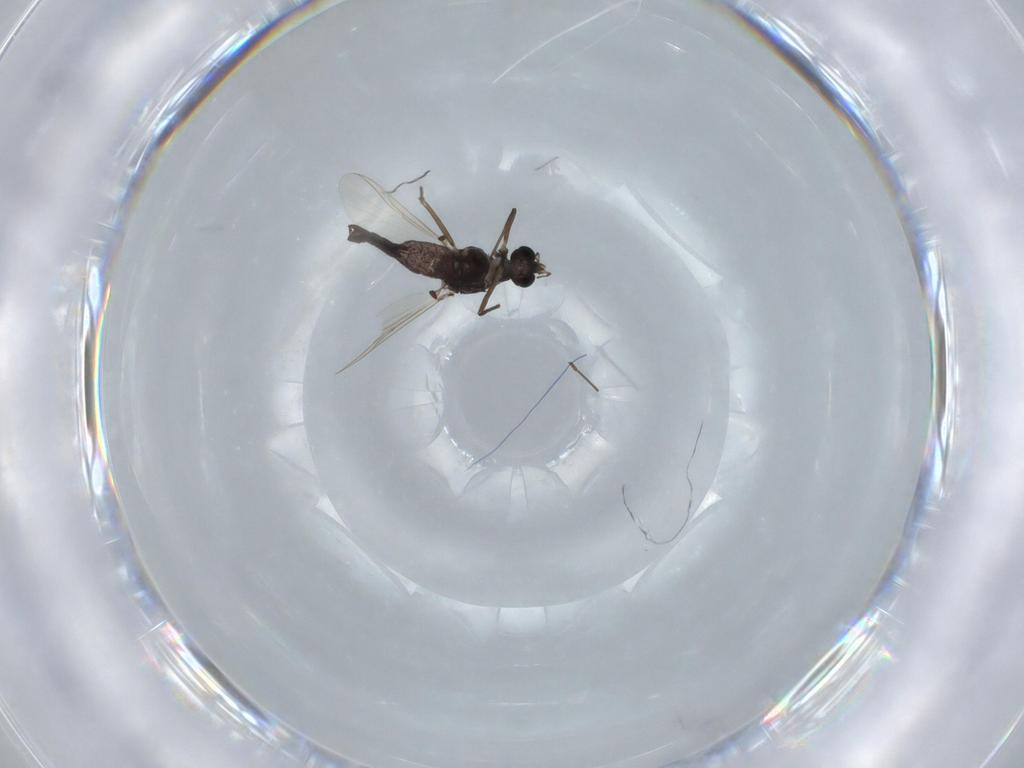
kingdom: Animalia
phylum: Arthropoda
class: Insecta
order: Diptera
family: Chironomidae
